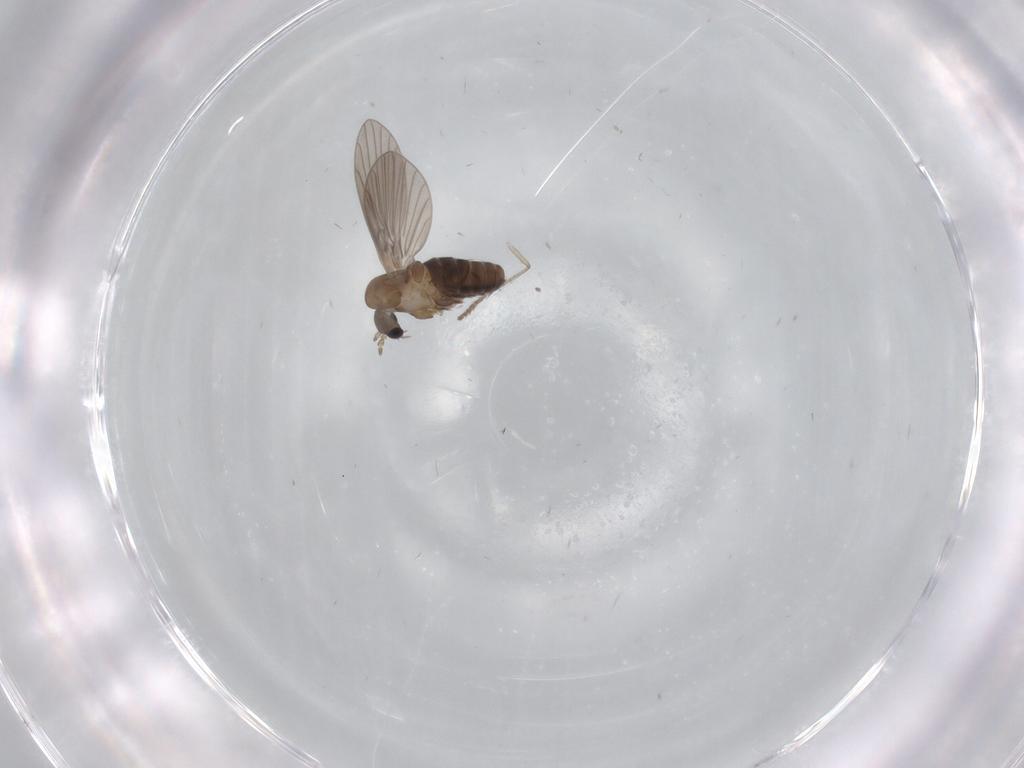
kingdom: Animalia
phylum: Arthropoda
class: Insecta
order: Diptera
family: Psychodidae
